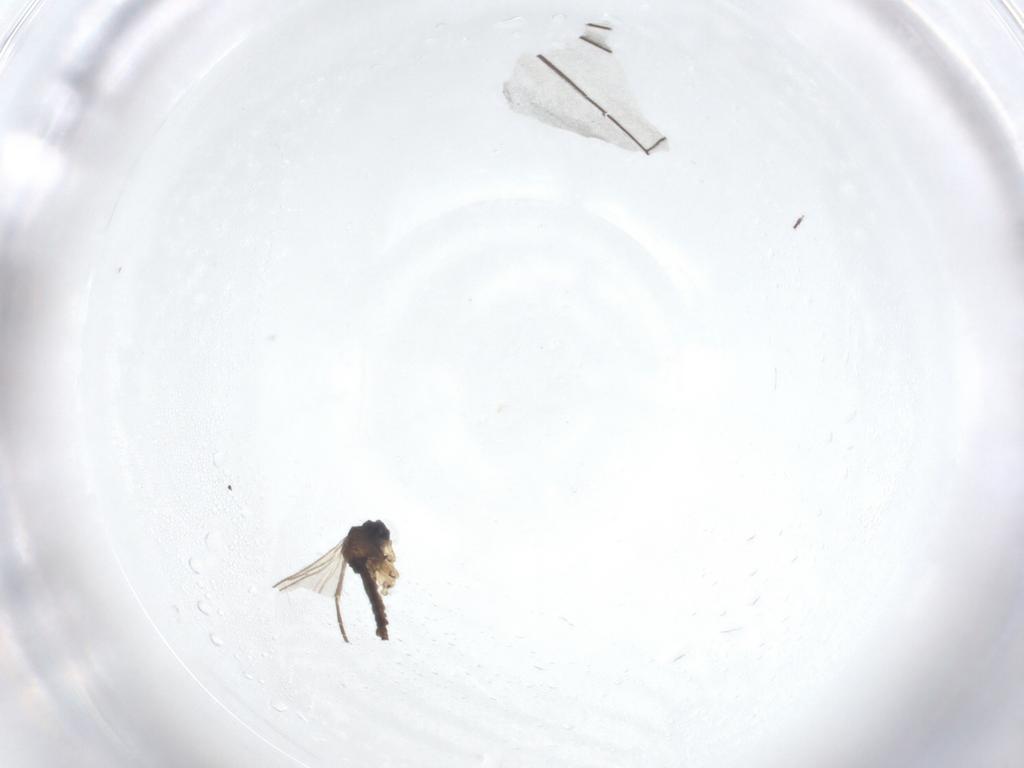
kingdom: Animalia
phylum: Arthropoda
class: Insecta
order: Diptera
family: Dolichopodidae
